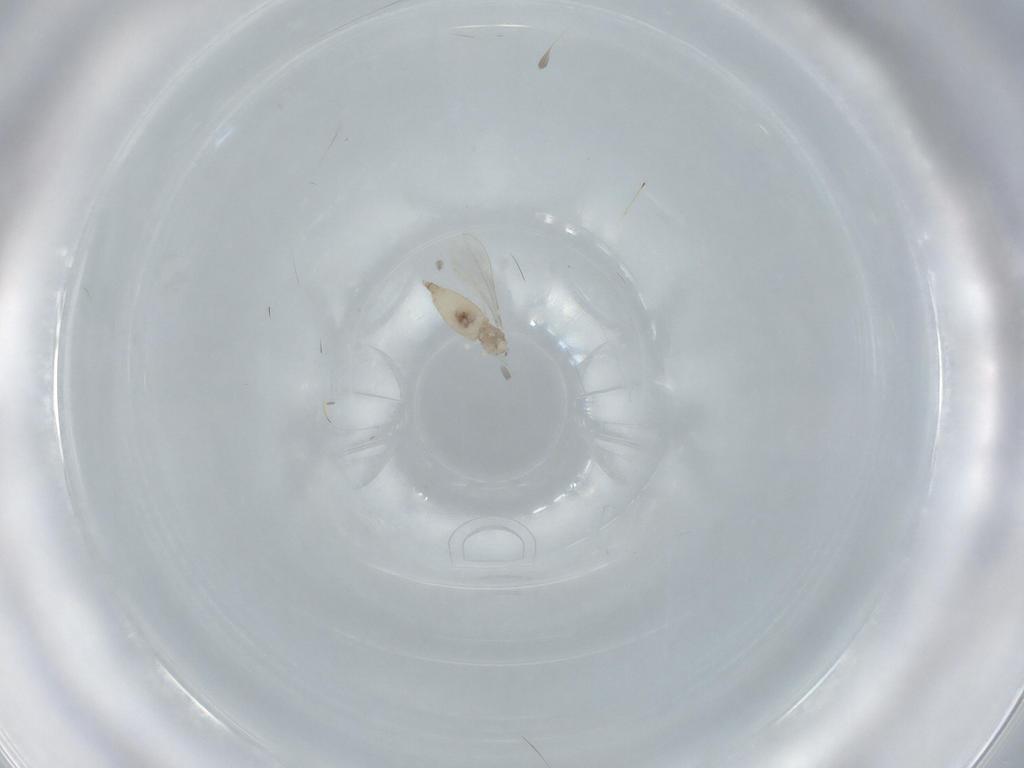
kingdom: Animalia
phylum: Arthropoda
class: Insecta
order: Diptera
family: Cecidomyiidae
